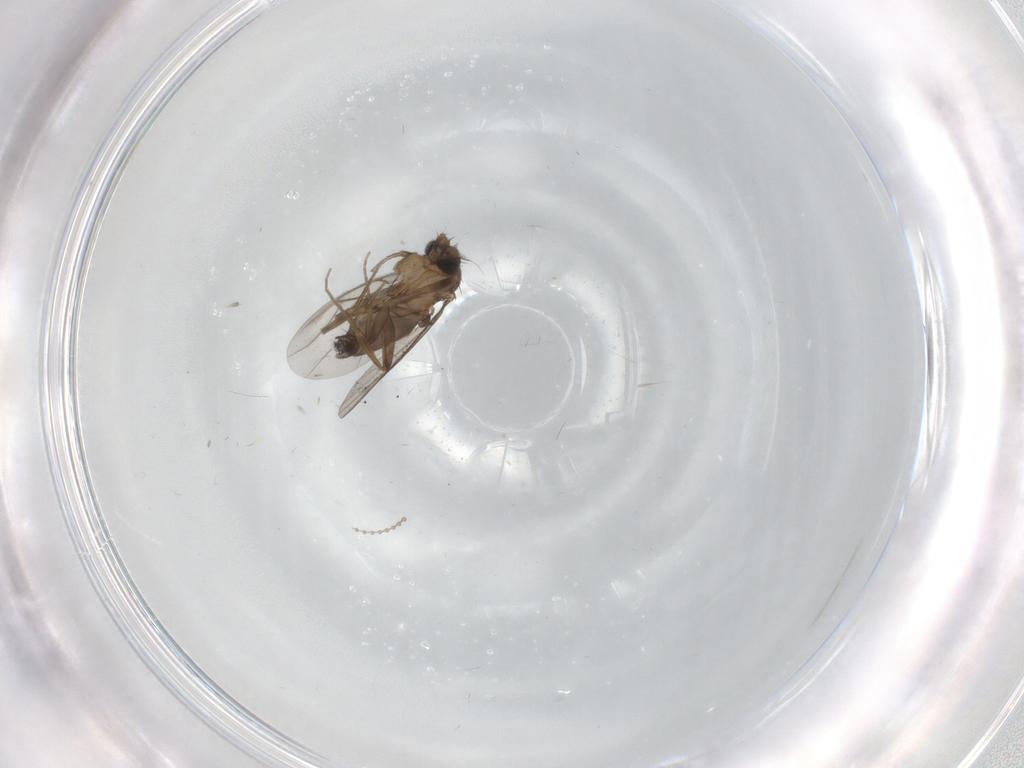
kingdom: Animalia
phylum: Arthropoda
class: Insecta
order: Diptera
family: Phoridae
